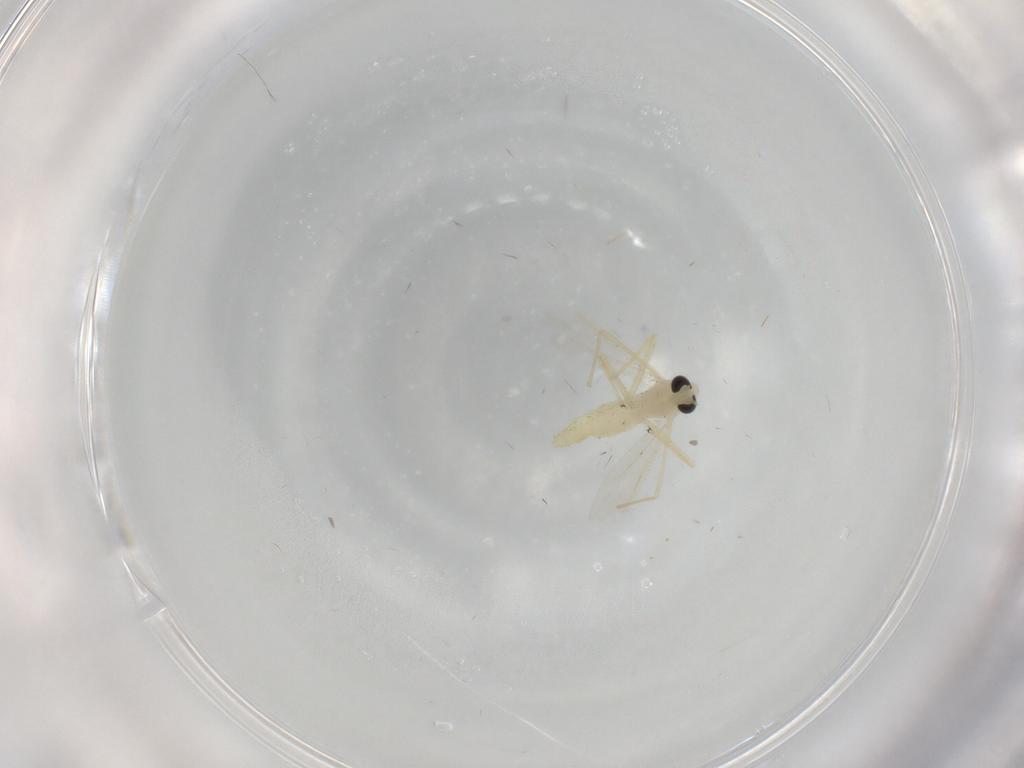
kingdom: Animalia
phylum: Arthropoda
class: Insecta
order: Diptera
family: Chironomidae
